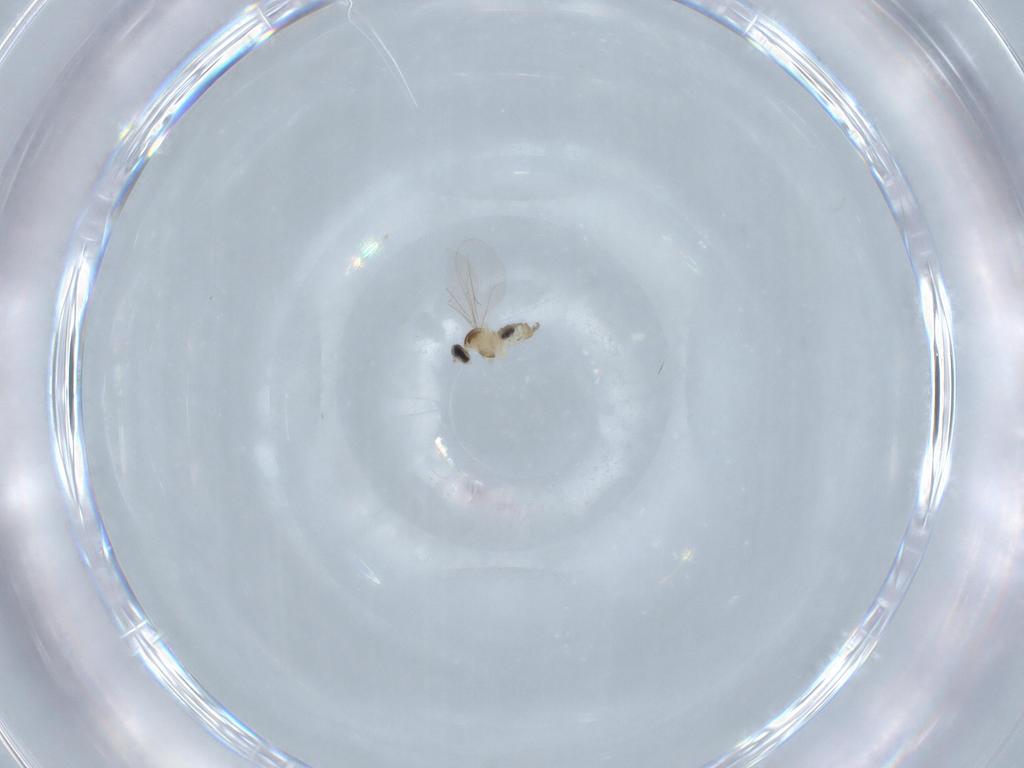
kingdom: Animalia
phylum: Arthropoda
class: Insecta
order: Diptera
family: Cecidomyiidae
